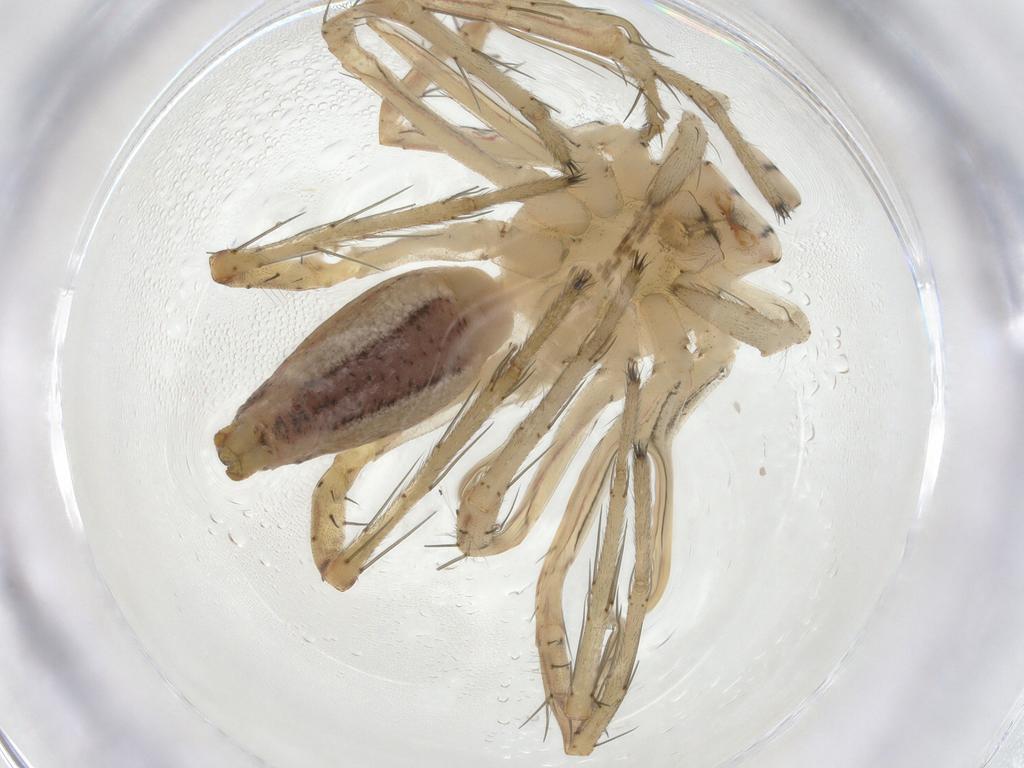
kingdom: Animalia
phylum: Arthropoda
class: Arachnida
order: Araneae
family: Oxyopidae
